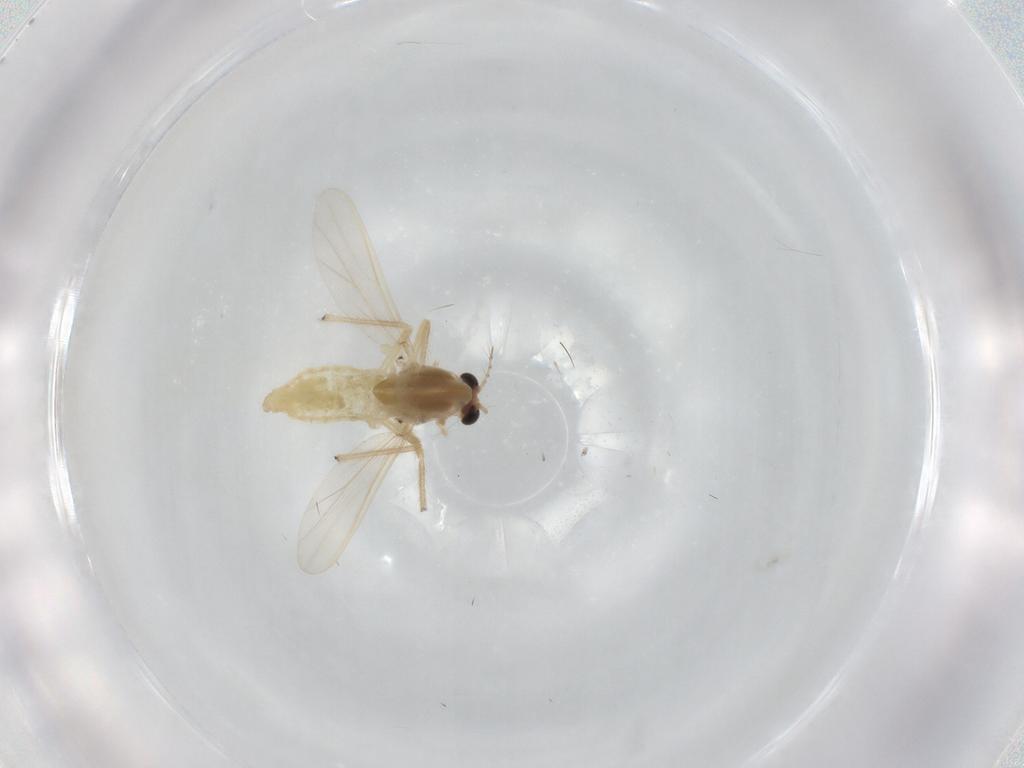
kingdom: Animalia
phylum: Arthropoda
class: Insecta
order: Diptera
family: Chironomidae
